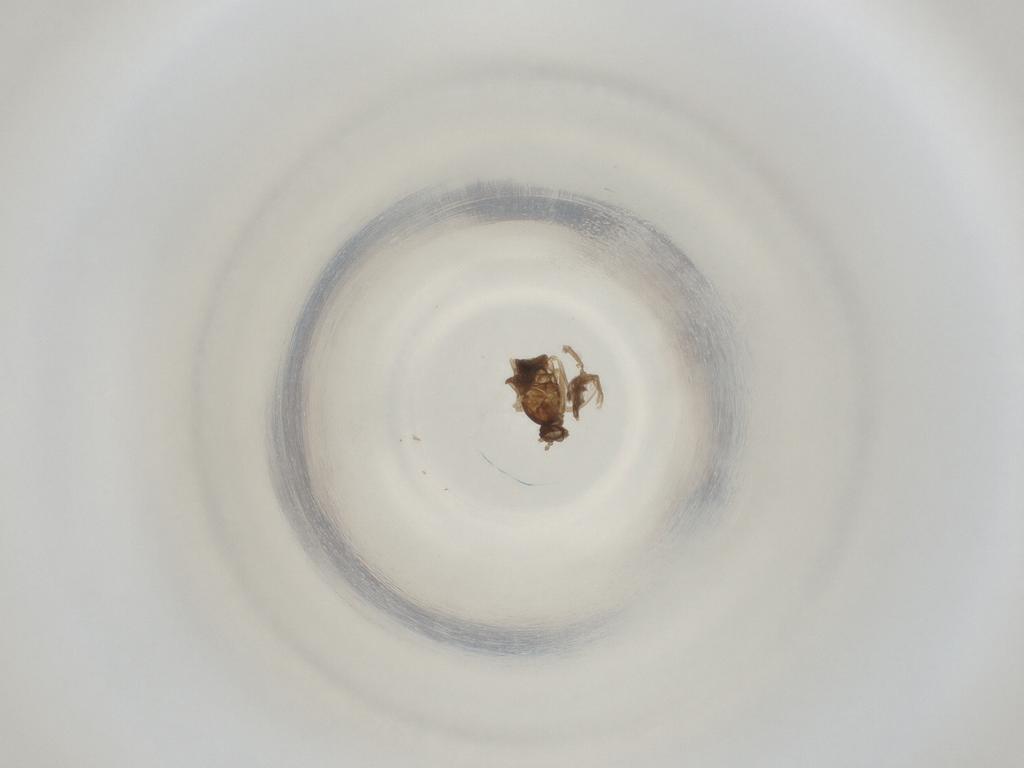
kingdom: Animalia
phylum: Arthropoda
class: Insecta
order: Diptera
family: Cecidomyiidae
